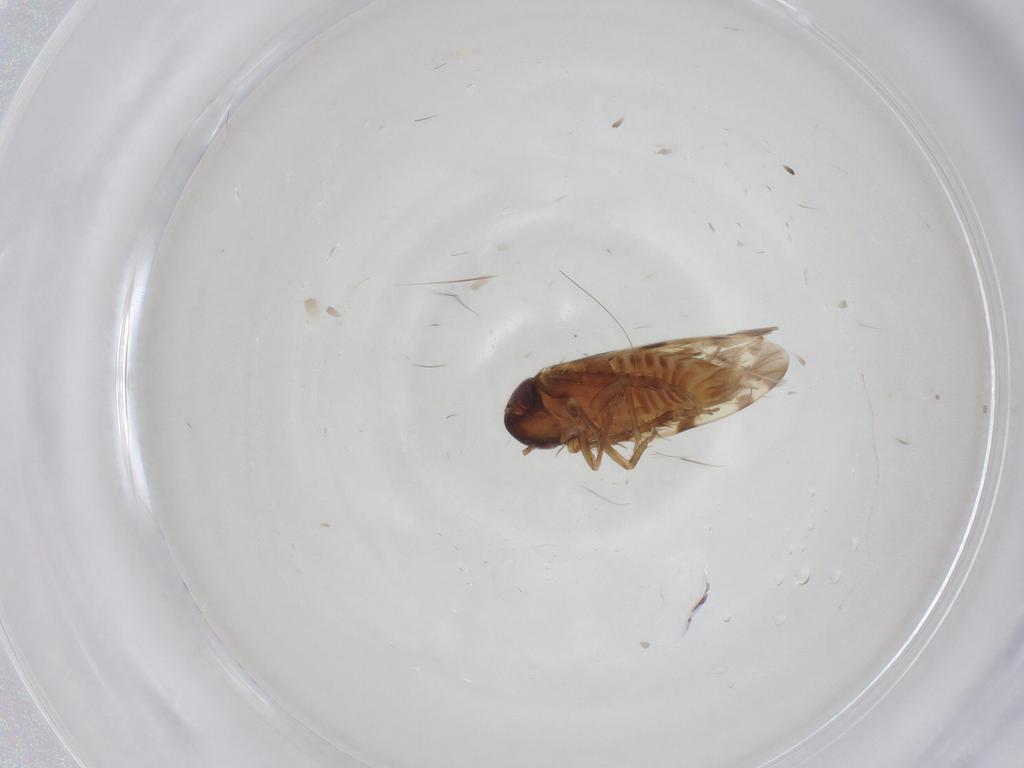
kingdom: Animalia
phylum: Arthropoda
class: Insecta
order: Hemiptera
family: Cicadellidae
